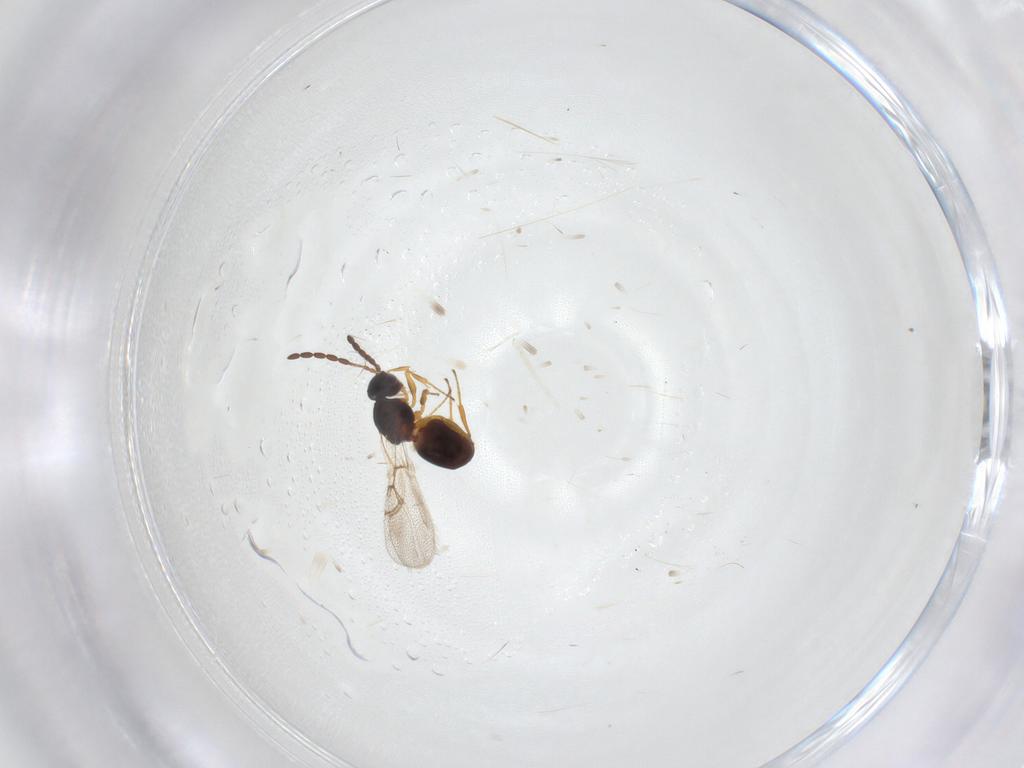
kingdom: Animalia
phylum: Arthropoda
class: Insecta
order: Hymenoptera
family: Figitidae
